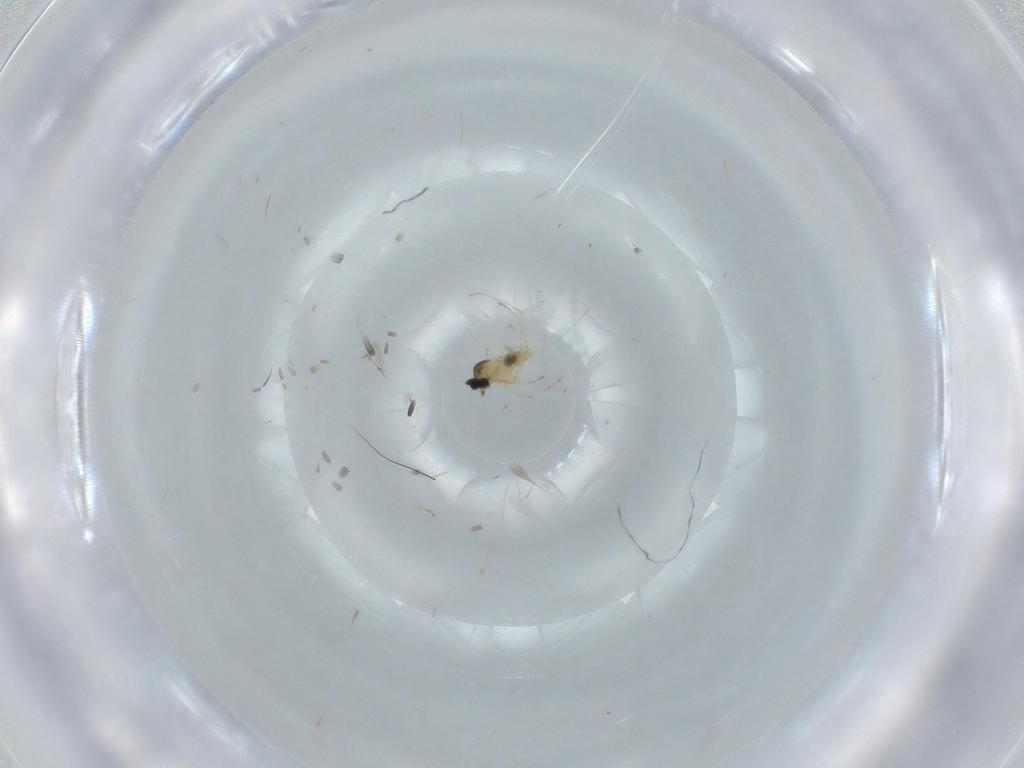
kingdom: Animalia
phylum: Arthropoda
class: Insecta
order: Diptera
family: Cecidomyiidae
